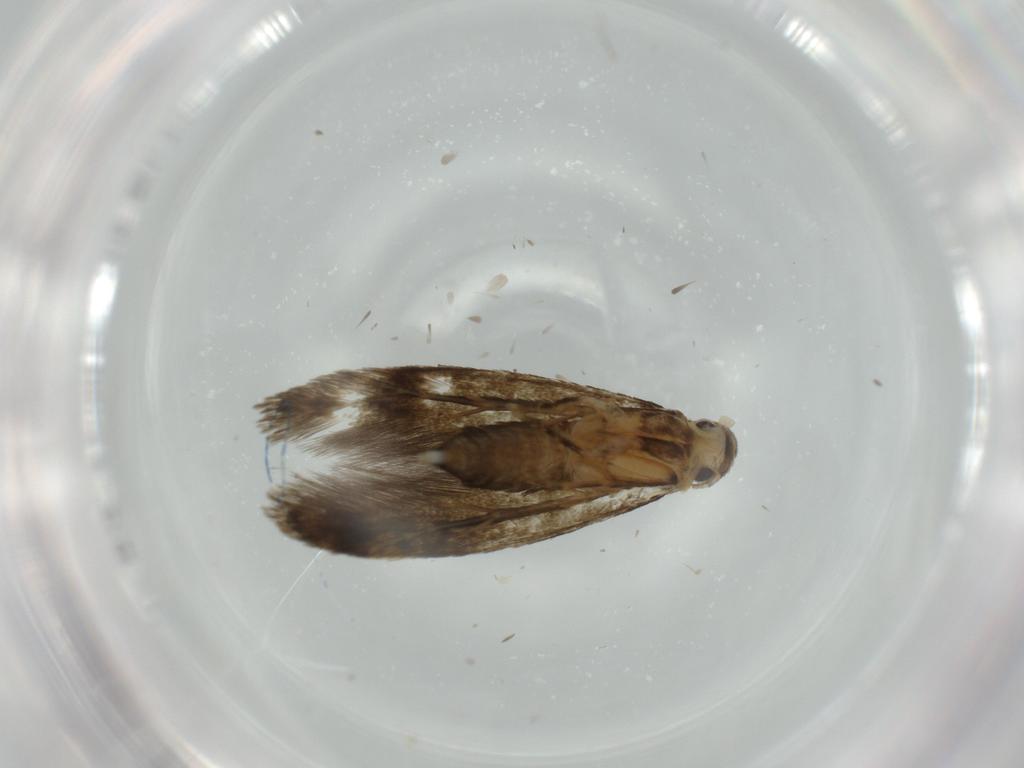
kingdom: Animalia
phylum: Arthropoda
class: Insecta
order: Lepidoptera
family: Tineidae
